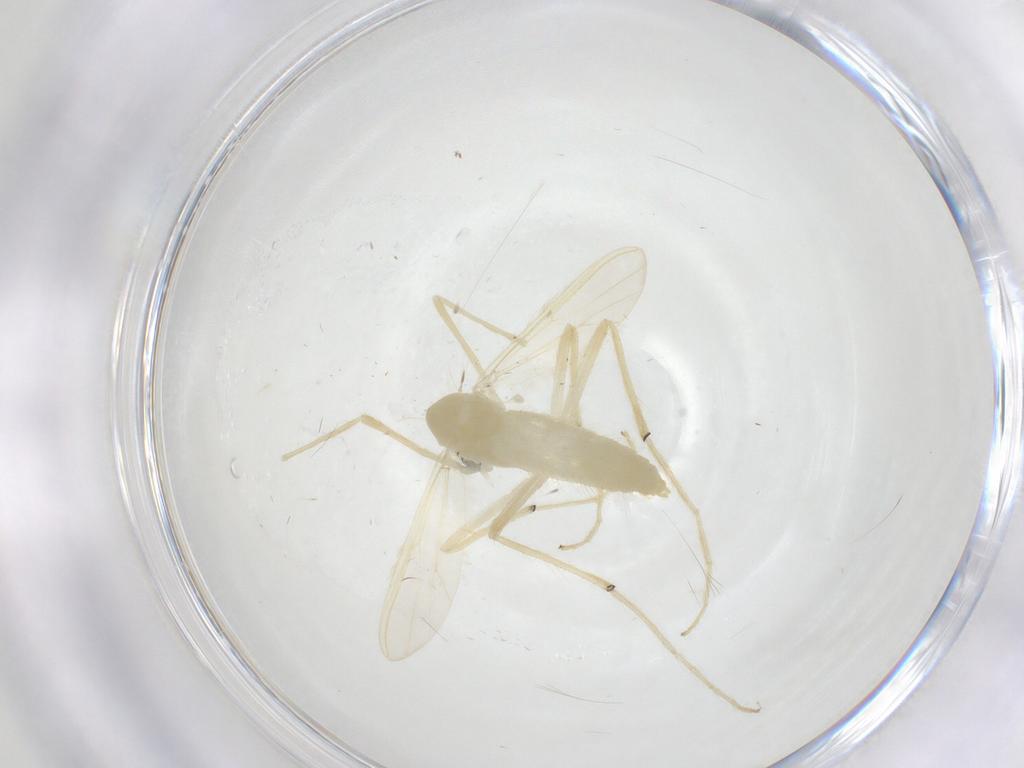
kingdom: Animalia
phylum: Arthropoda
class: Insecta
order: Diptera
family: Chironomidae
